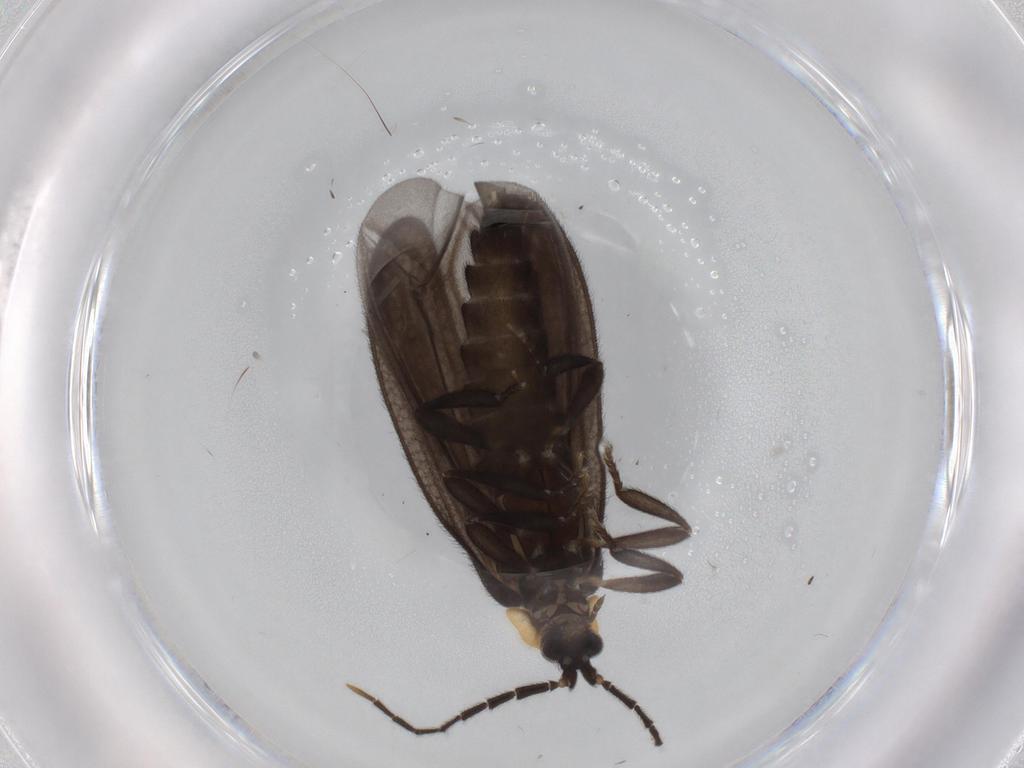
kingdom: Animalia
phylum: Arthropoda
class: Insecta
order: Coleoptera
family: Lycidae
